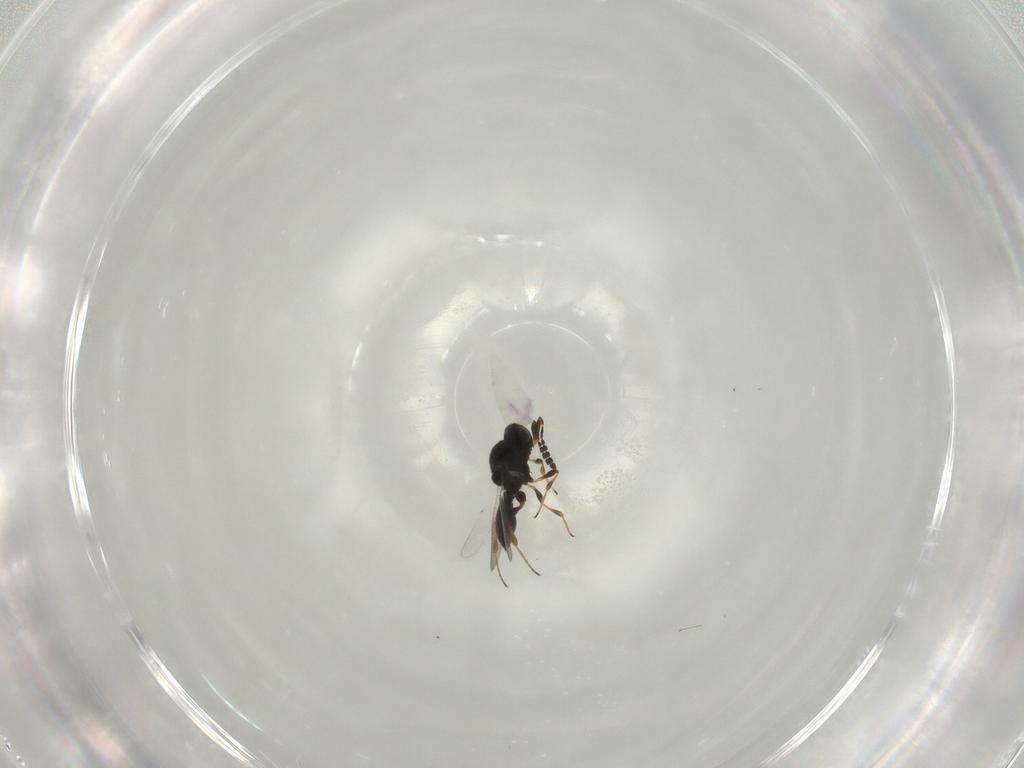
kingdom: Animalia
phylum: Arthropoda
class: Insecta
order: Hymenoptera
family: Platygastridae
